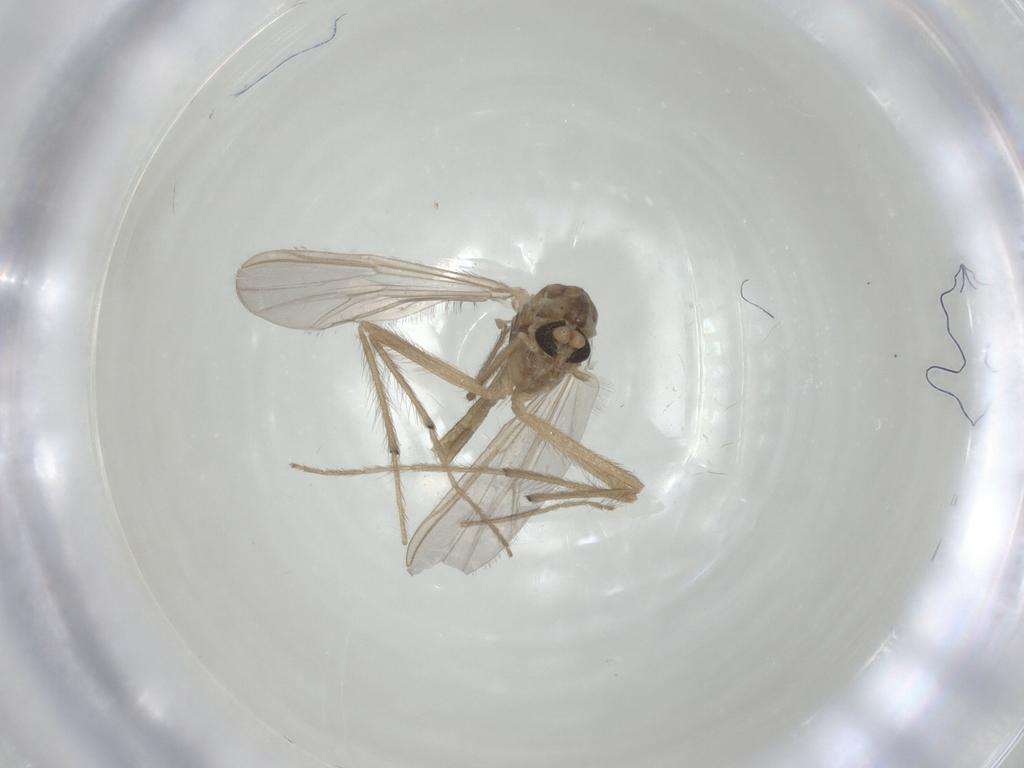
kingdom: Animalia
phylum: Arthropoda
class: Insecta
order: Diptera
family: Chironomidae
